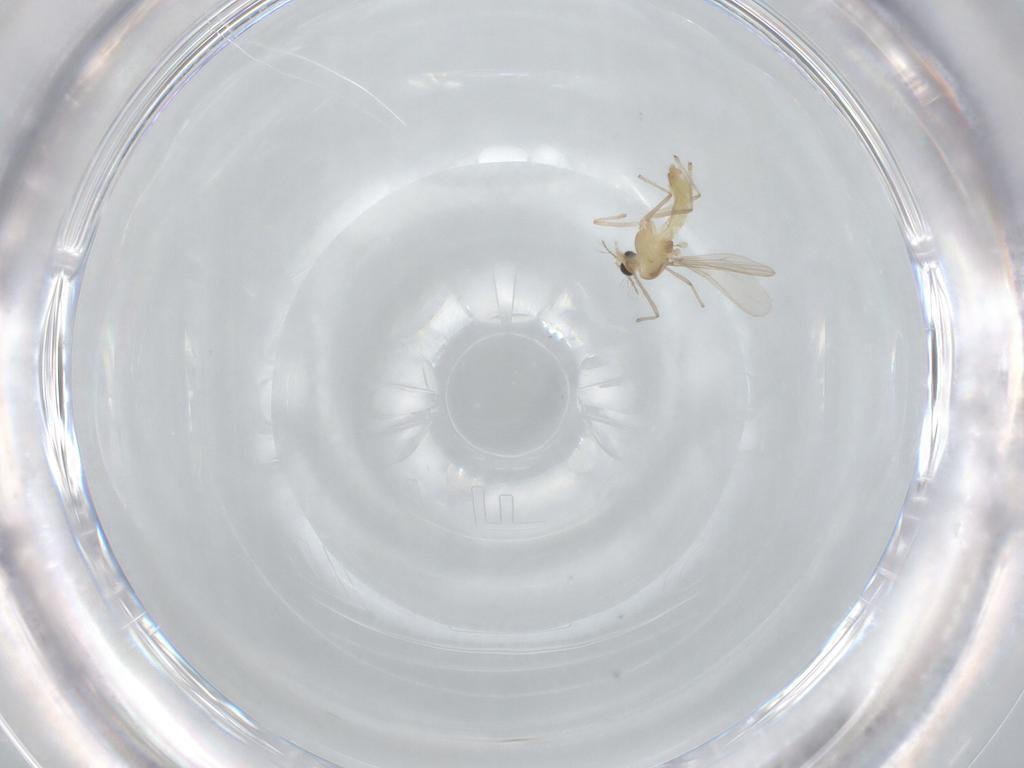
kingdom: Animalia
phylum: Arthropoda
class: Insecta
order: Diptera
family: Chironomidae
